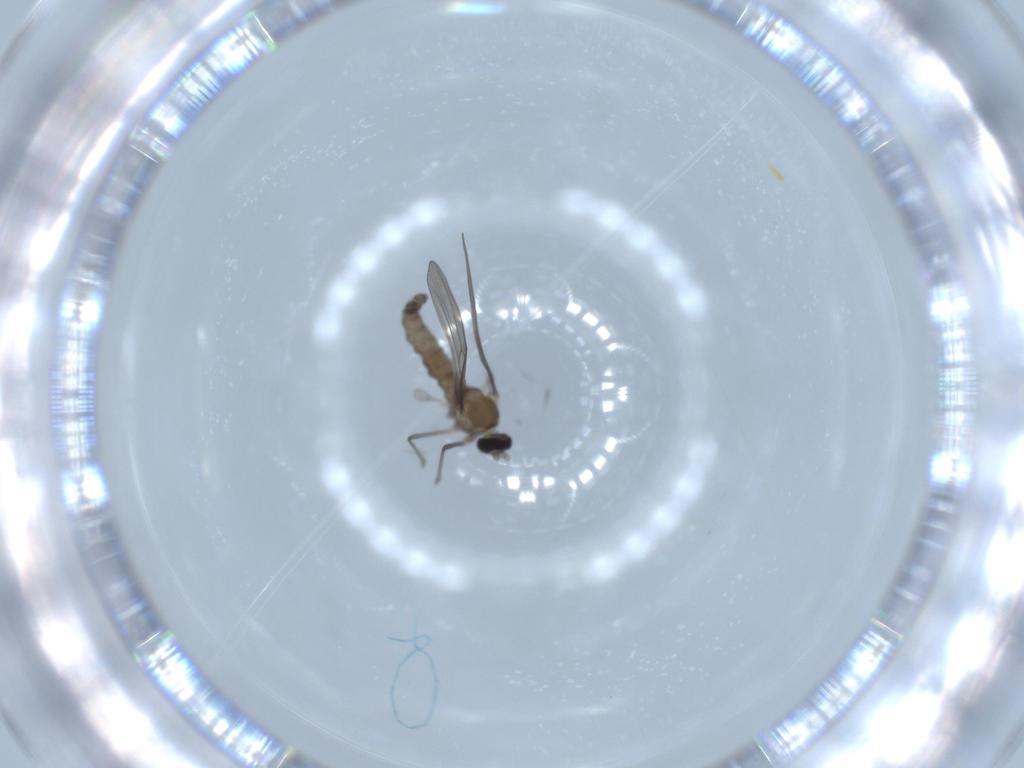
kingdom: Animalia
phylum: Arthropoda
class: Insecta
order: Diptera
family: Cecidomyiidae
